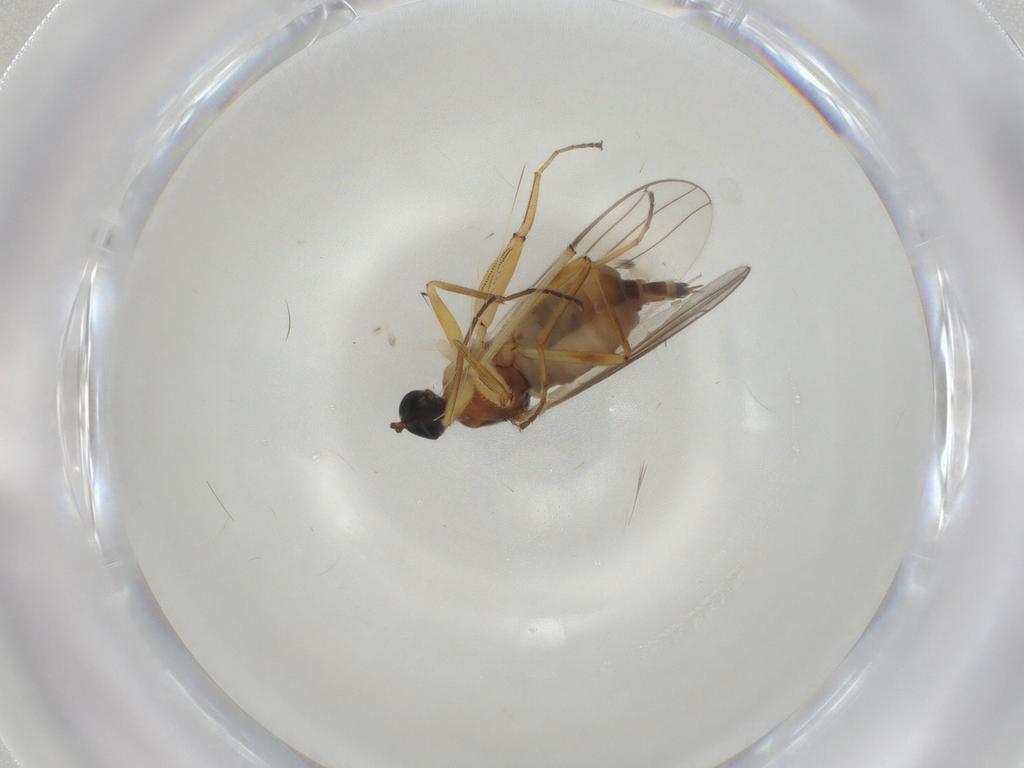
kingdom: Animalia
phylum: Arthropoda
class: Insecta
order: Diptera
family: Hybotidae
